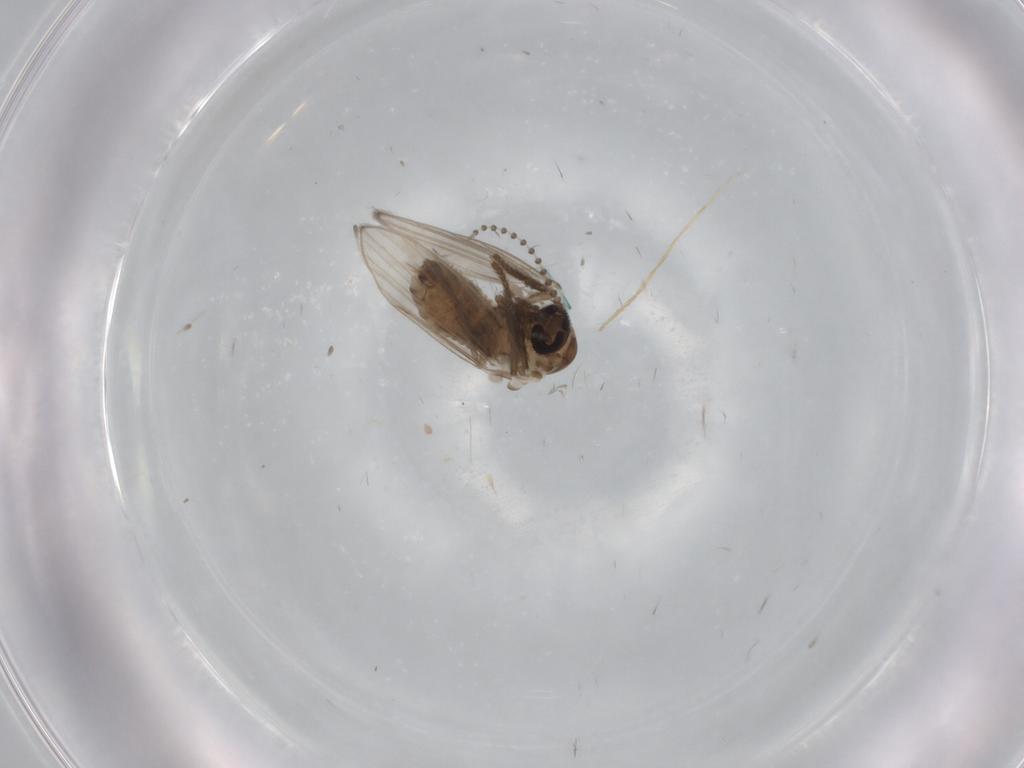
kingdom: Animalia
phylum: Arthropoda
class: Insecta
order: Diptera
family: Psychodidae
